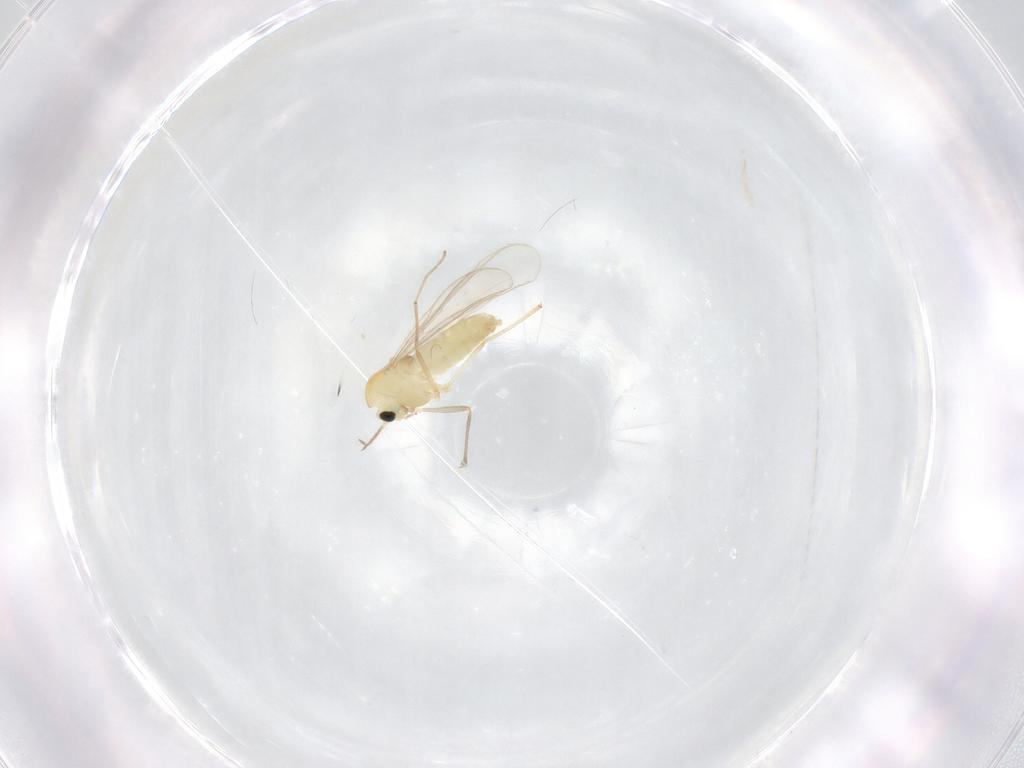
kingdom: Animalia
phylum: Arthropoda
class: Insecta
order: Diptera
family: Chironomidae
